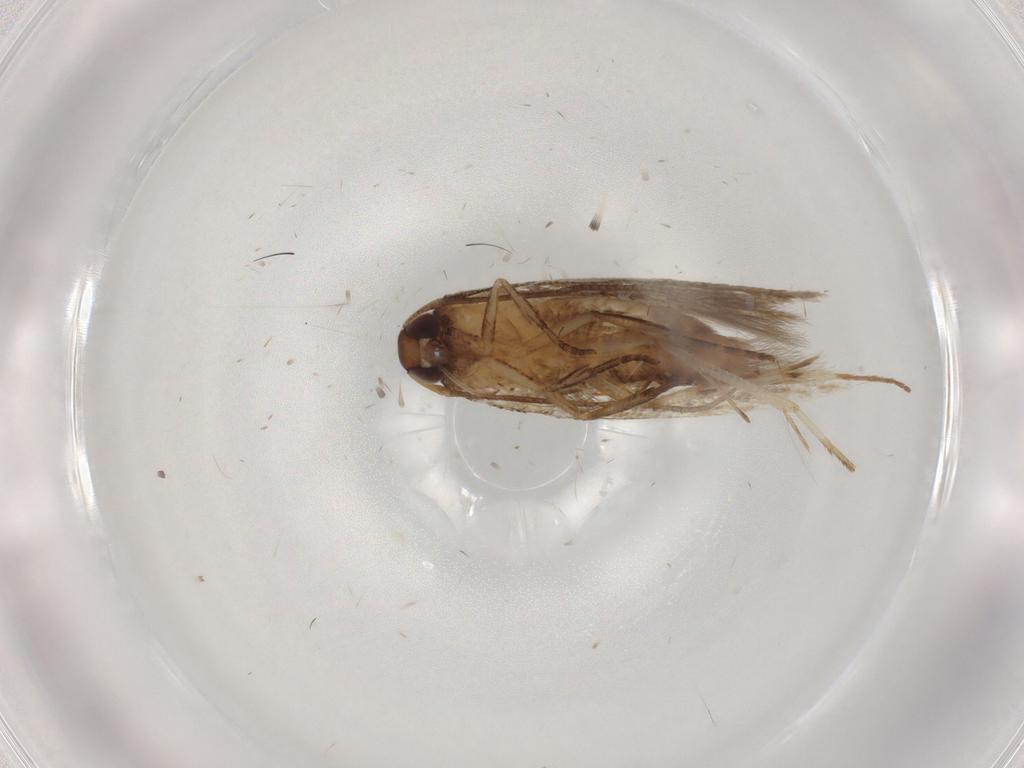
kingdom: Animalia
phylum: Arthropoda
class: Insecta
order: Lepidoptera
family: Cosmopterigidae
